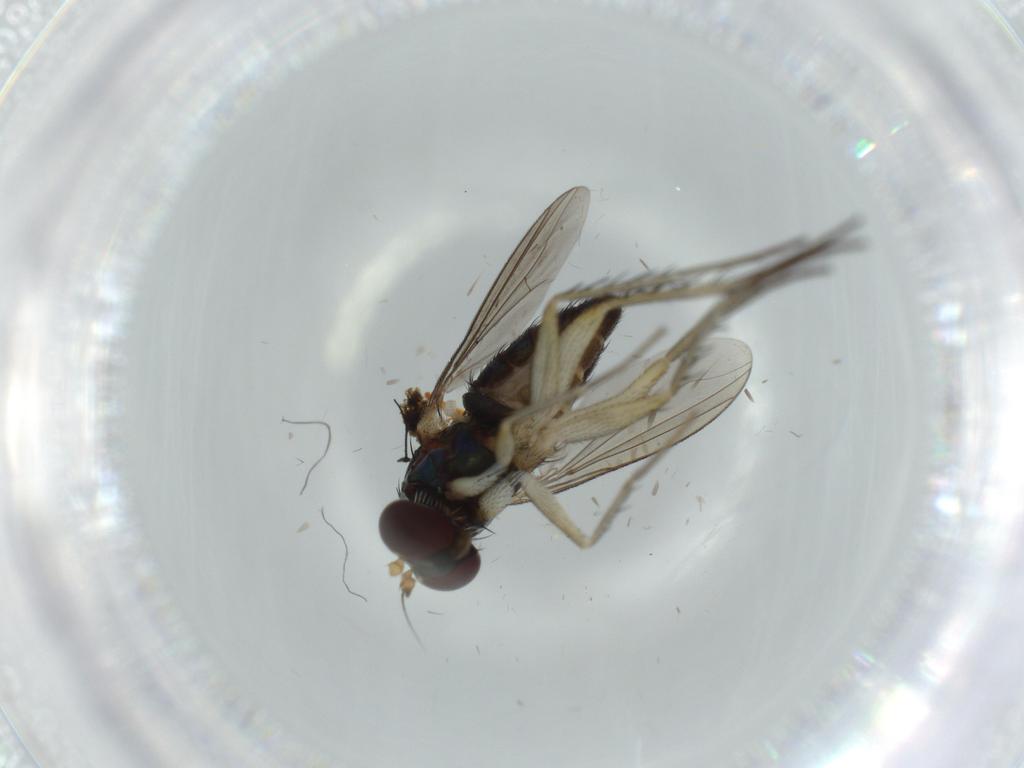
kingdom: Animalia
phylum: Arthropoda
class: Insecta
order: Diptera
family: Dolichopodidae
